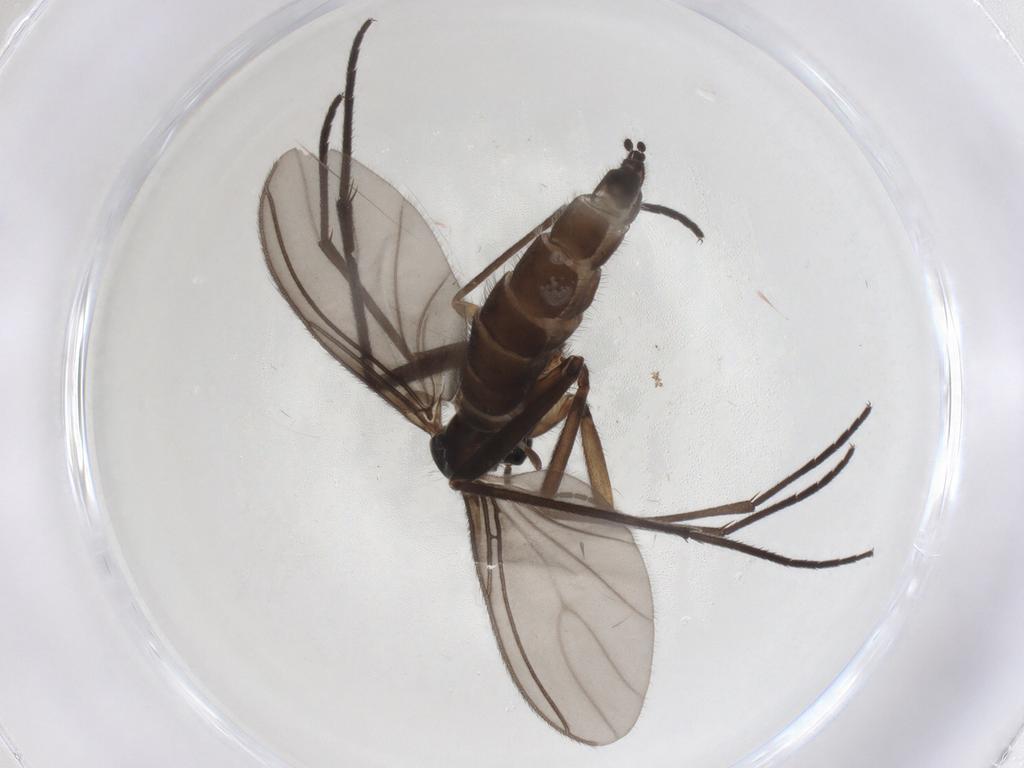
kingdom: Animalia
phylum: Arthropoda
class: Insecta
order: Diptera
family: Sciaridae
